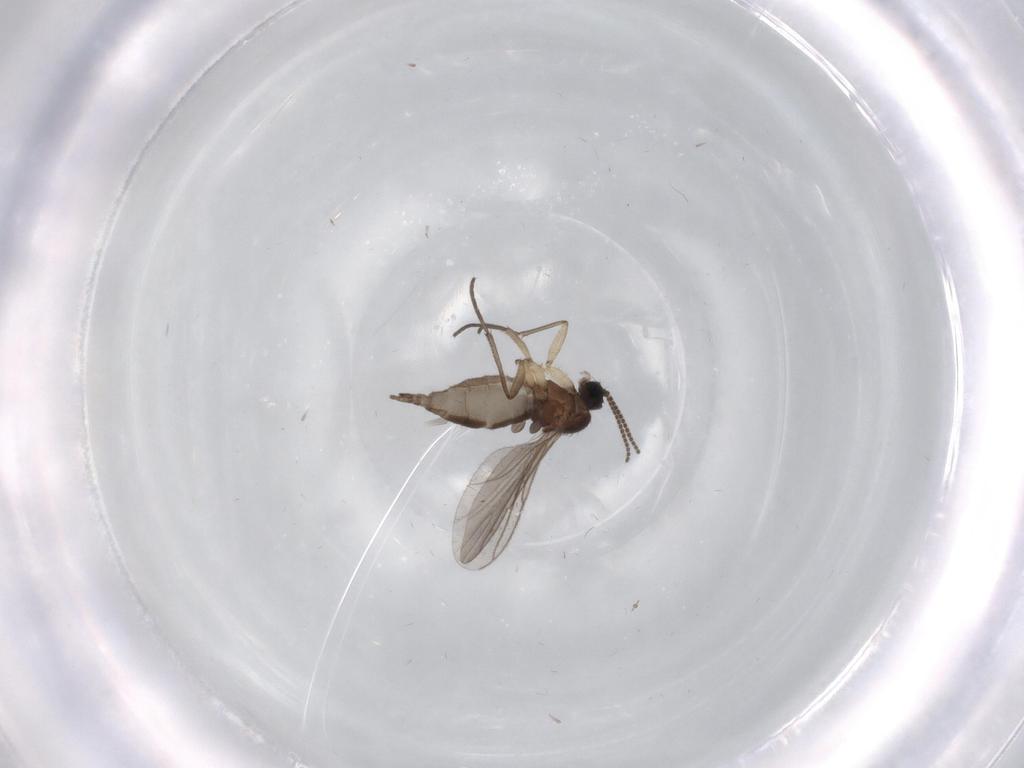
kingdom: Animalia
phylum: Arthropoda
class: Insecta
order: Diptera
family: Sciaridae
